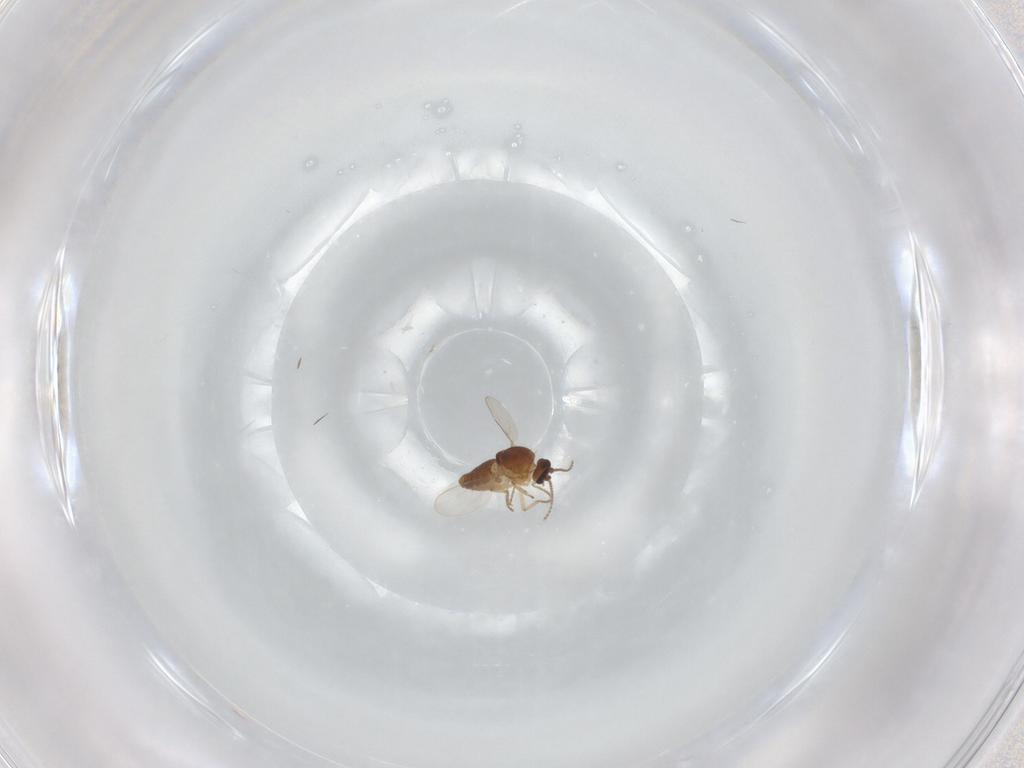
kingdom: Animalia
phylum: Arthropoda
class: Insecta
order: Diptera
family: Ceratopogonidae
